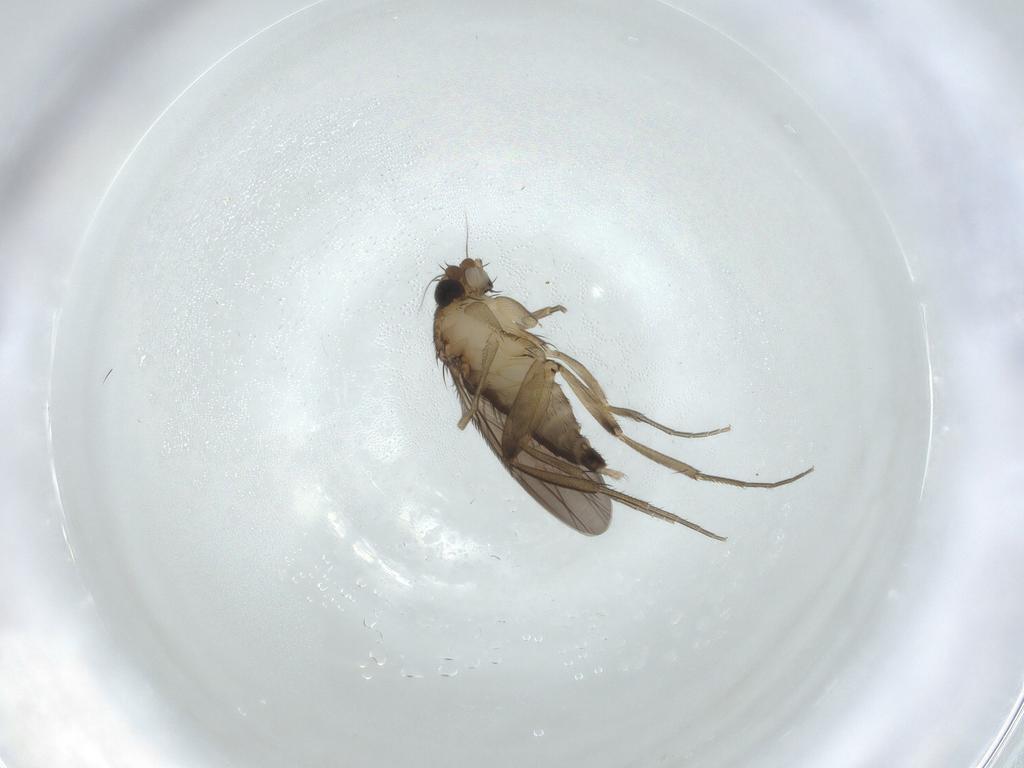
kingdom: Animalia
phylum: Arthropoda
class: Insecta
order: Diptera
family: Phoridae
